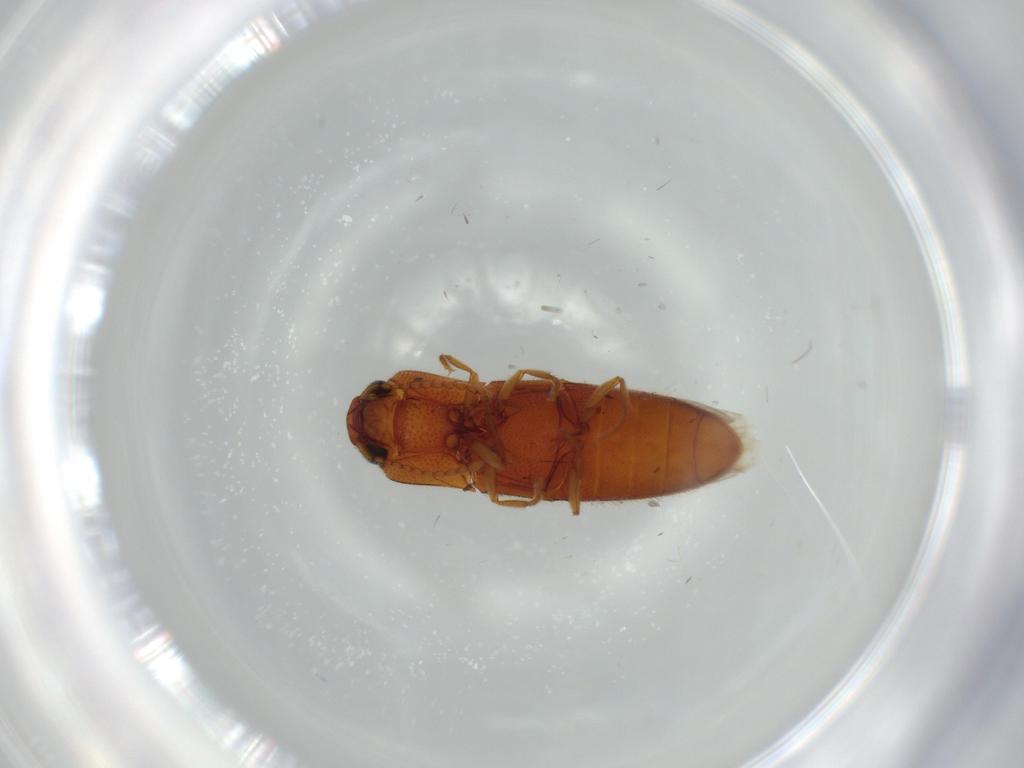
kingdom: Animalia
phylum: Arthropoda
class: Insecta
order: Coleoptera
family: Elateridae
